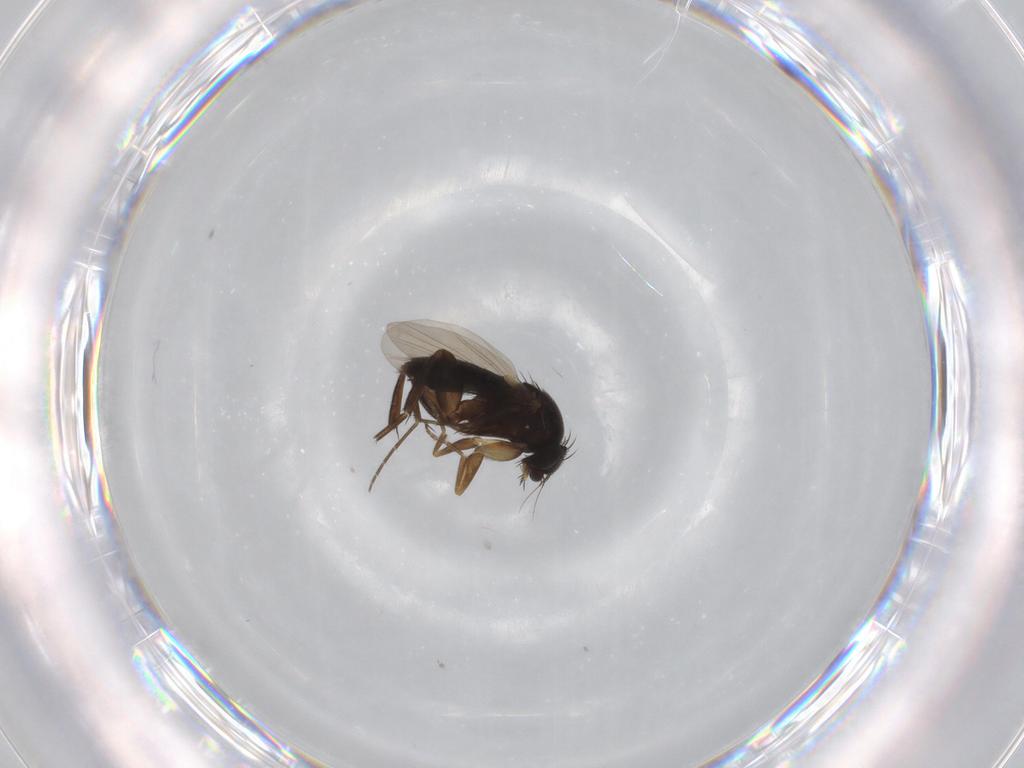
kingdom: Animalia
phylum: Arthropoda
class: Insecta
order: Diptera
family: Phoridae
